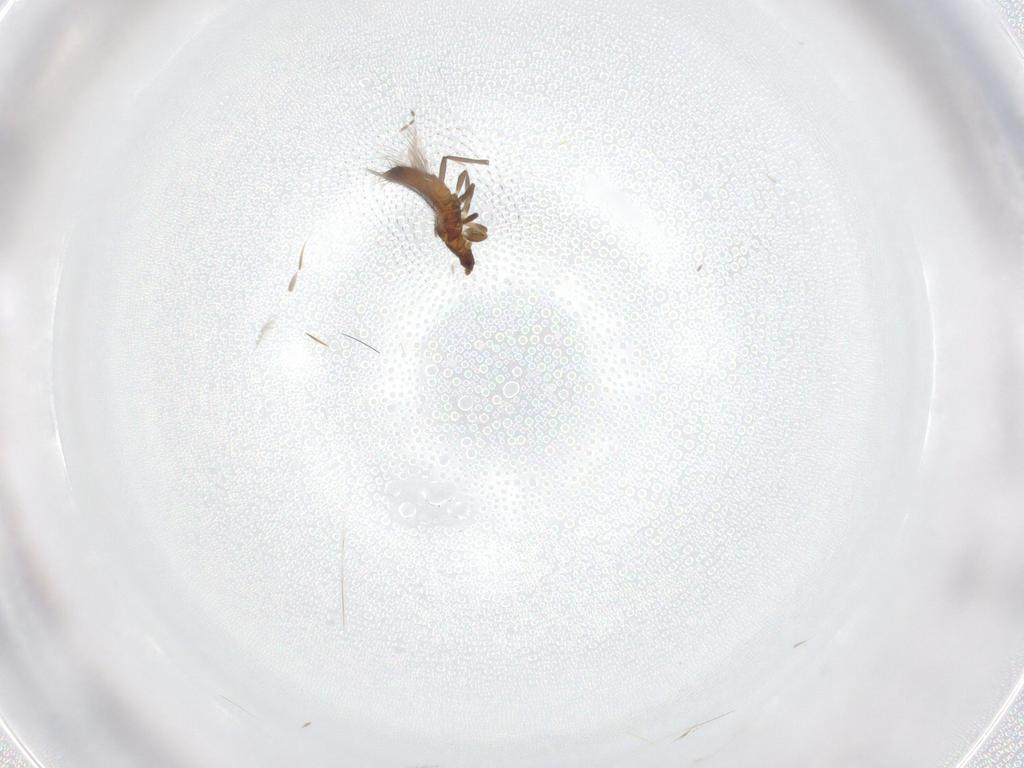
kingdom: Animalia
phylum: Arthropoda
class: Insecta
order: Thysanoptera
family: Thripidae
